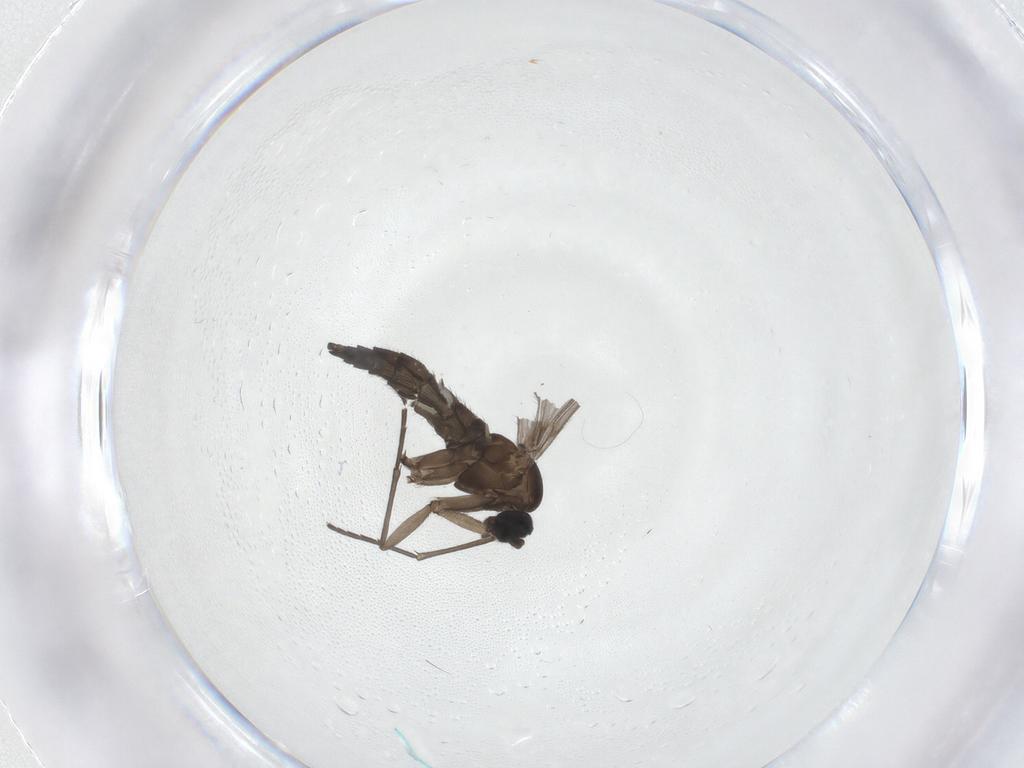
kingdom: Animalia
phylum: Arthropoda
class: Insecta
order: Diptera
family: Sciaridae
